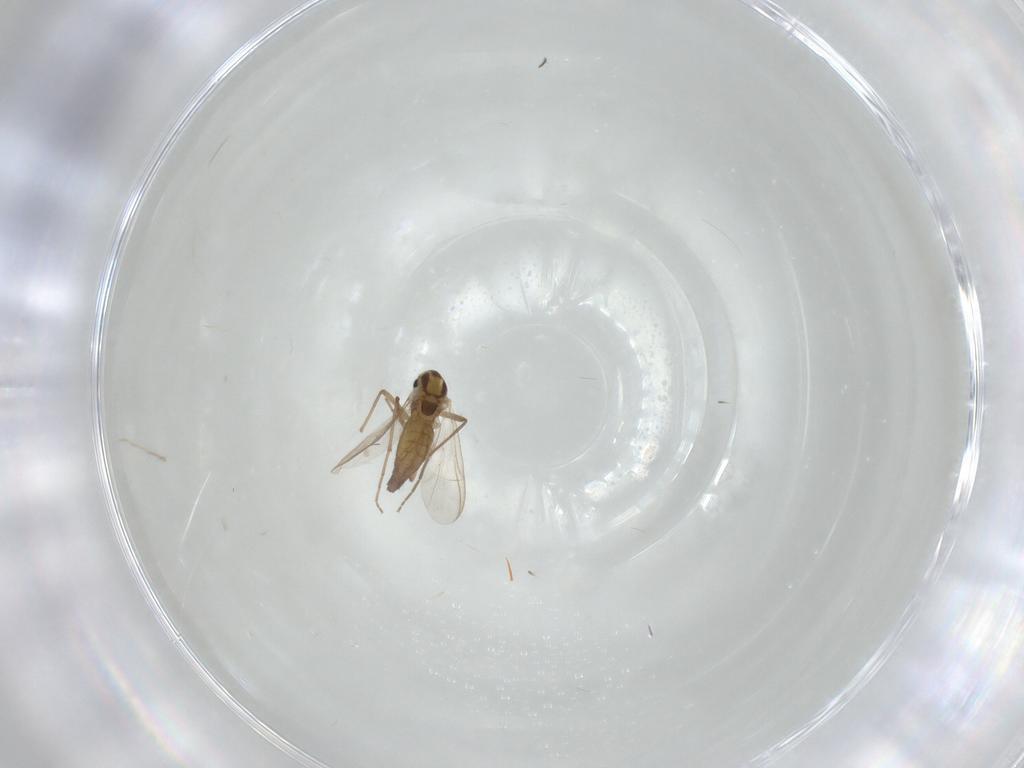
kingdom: Animalia
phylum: Arthropoda
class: Insecta
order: Diptera
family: Chironomidae
